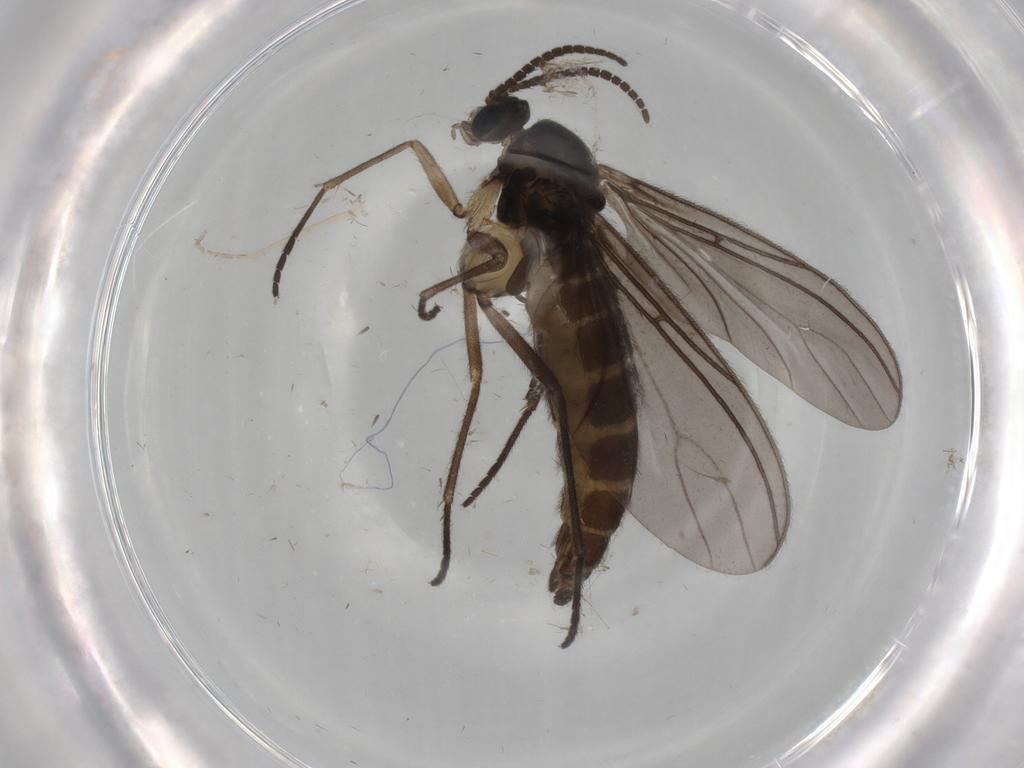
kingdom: Animalia
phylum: Arthropoda
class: Insecta
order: Diptera
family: Sciaridae
